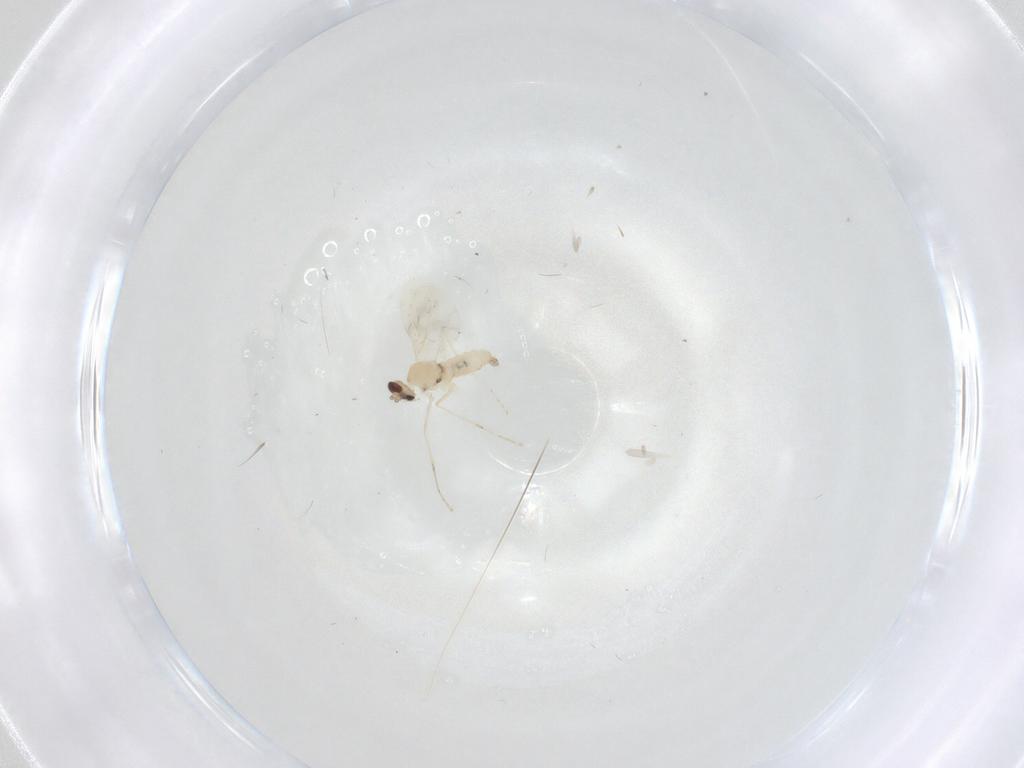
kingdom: Animalia
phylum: Arthropoda
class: Insecta
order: Diptera
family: Cecidomyiidae
